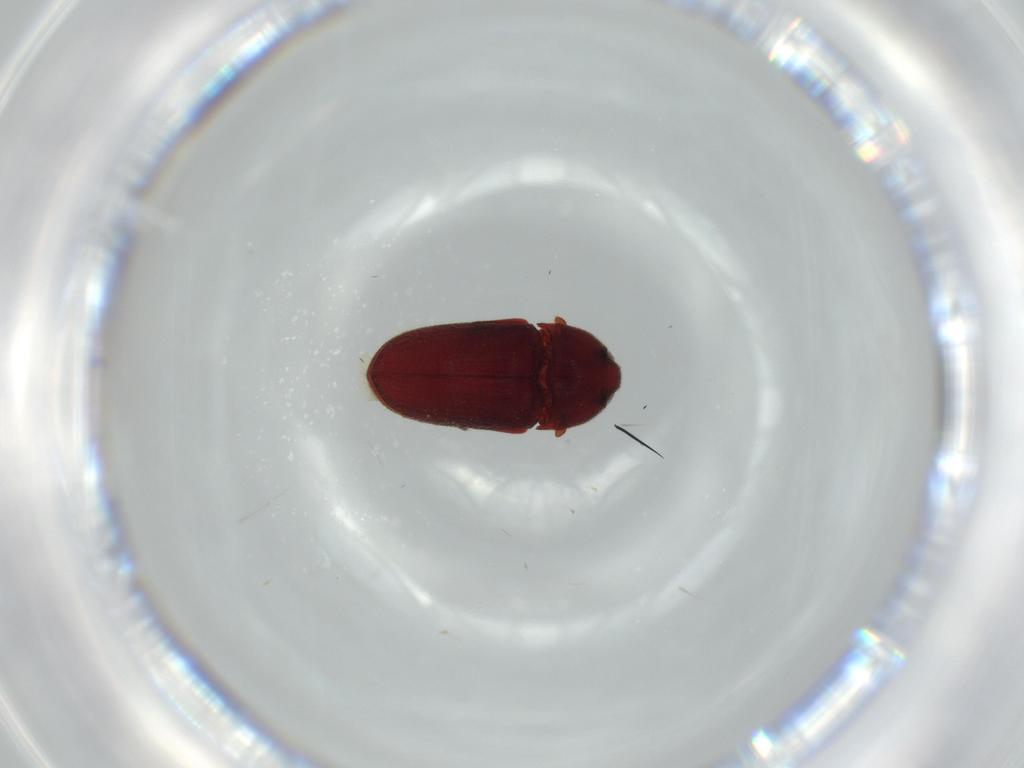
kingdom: Animalia
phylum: Arthropoda
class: Insecta
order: Coleoptera
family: Throscidae
